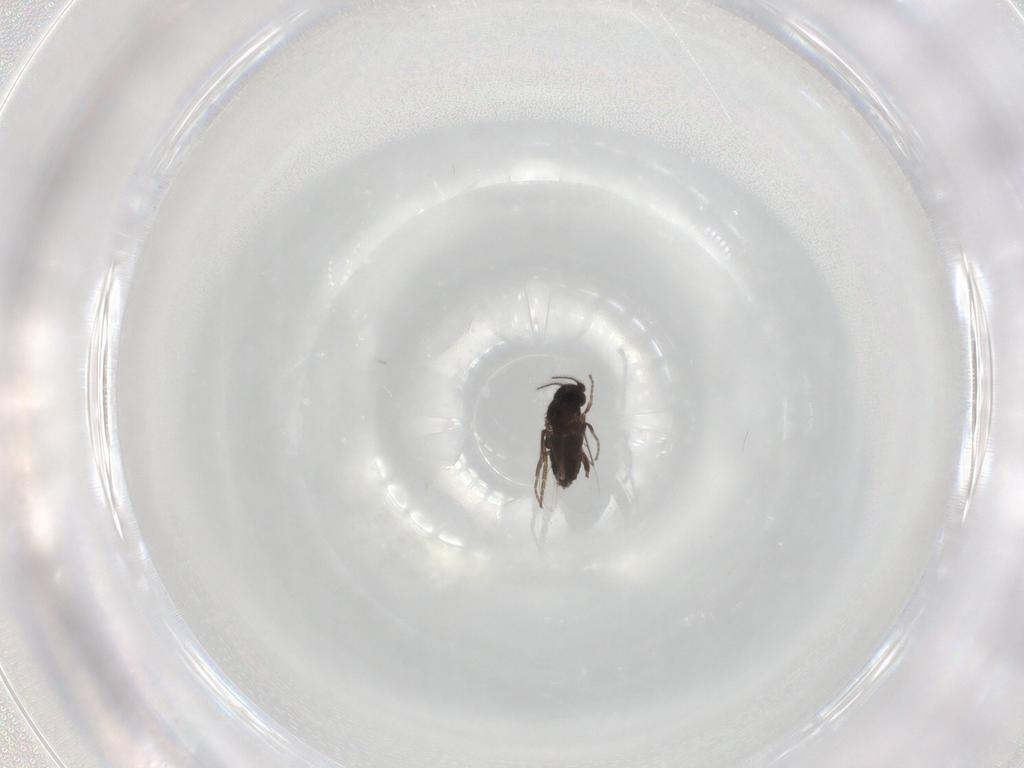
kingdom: Animalia
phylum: Arthropoda
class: Insecta
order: Diptera
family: Drosophilidae
